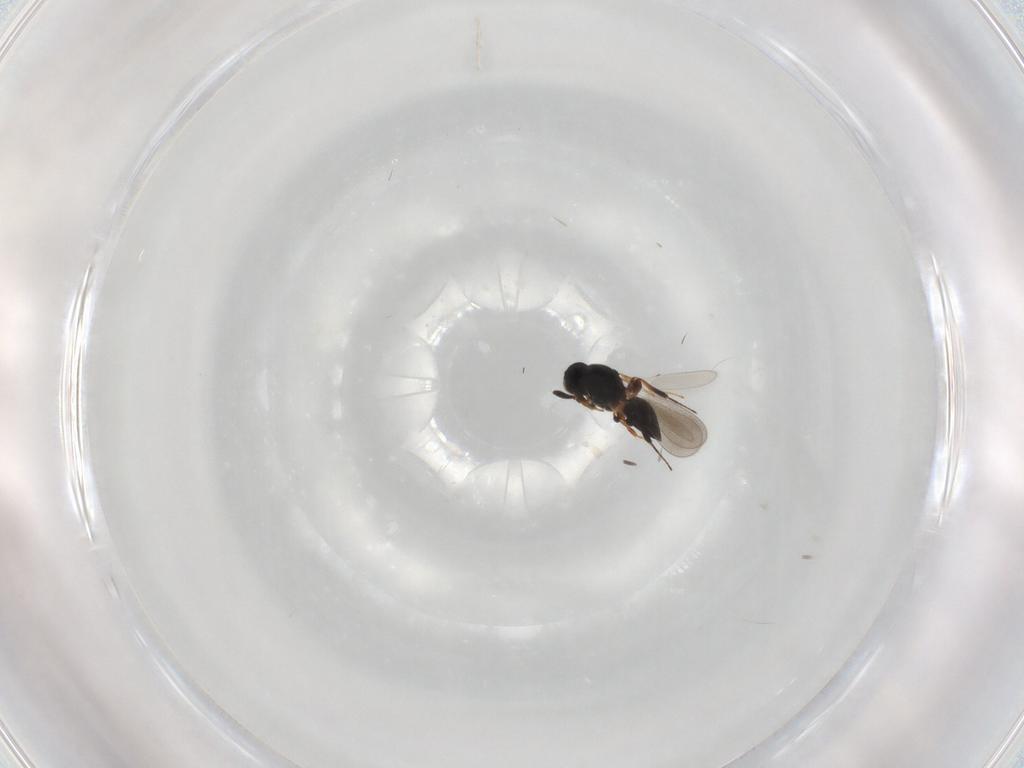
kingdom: Animalia
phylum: Arthropoda
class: Insecta
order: Hymenoptera
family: Platygastridae
